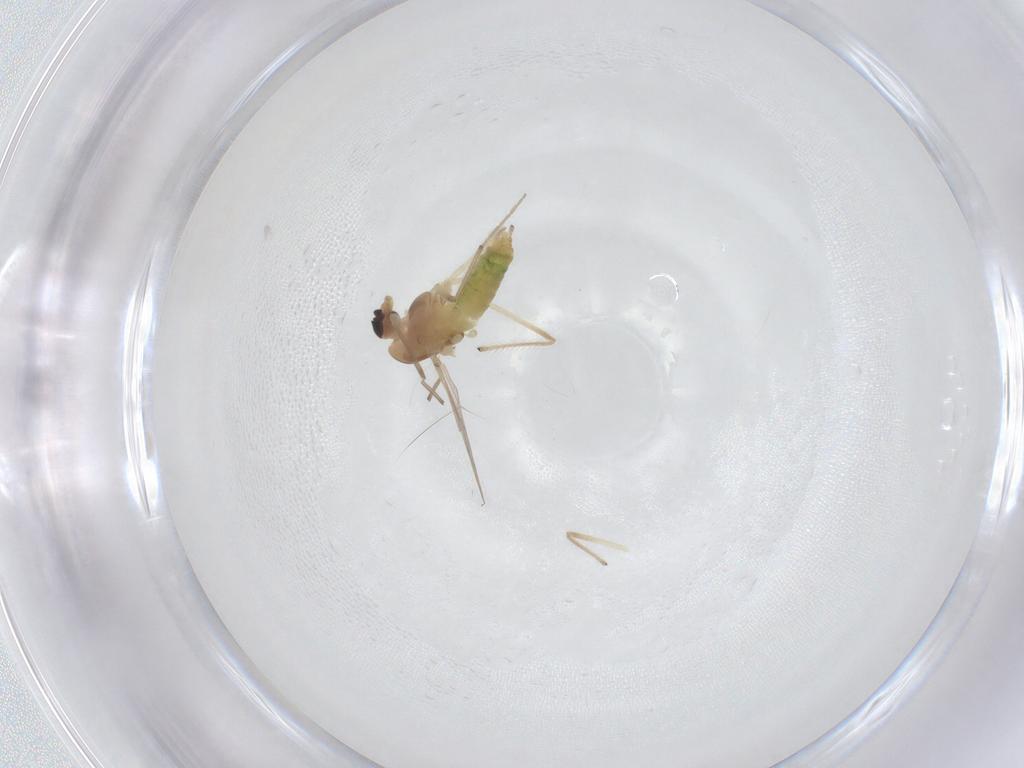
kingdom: Animalia
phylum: Arthropoda
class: Insecta
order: Diptera
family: Chironomidae
